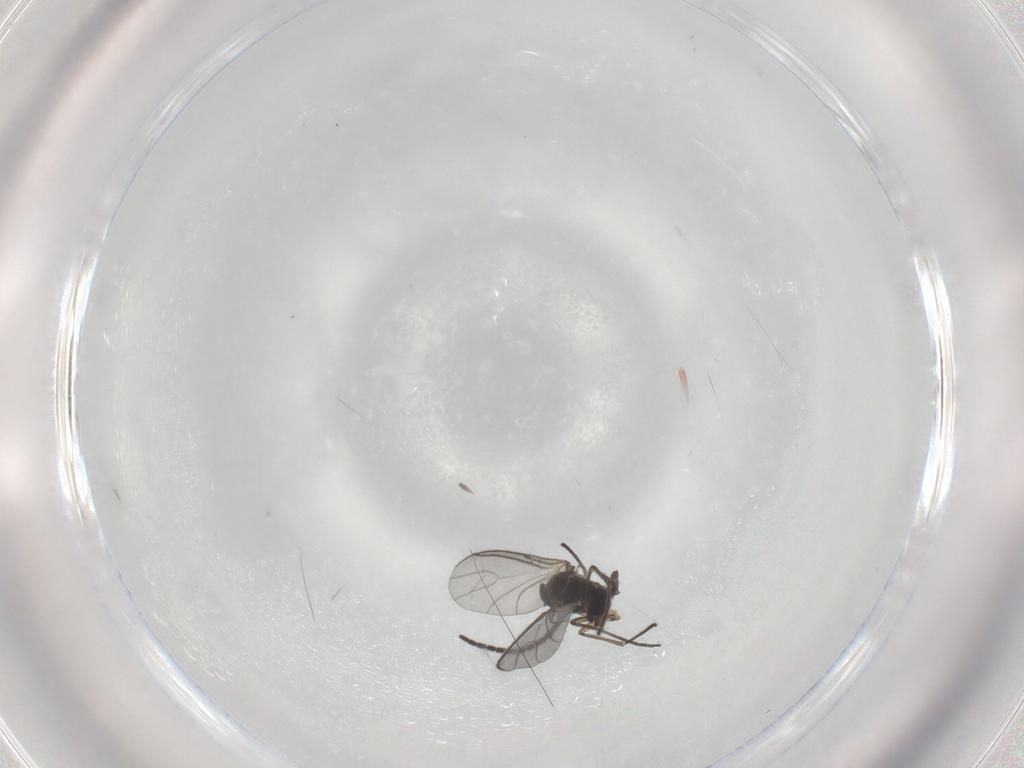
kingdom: Animalia
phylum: Arthropoda
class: Insecta
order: Diptera
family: Sciaridae
